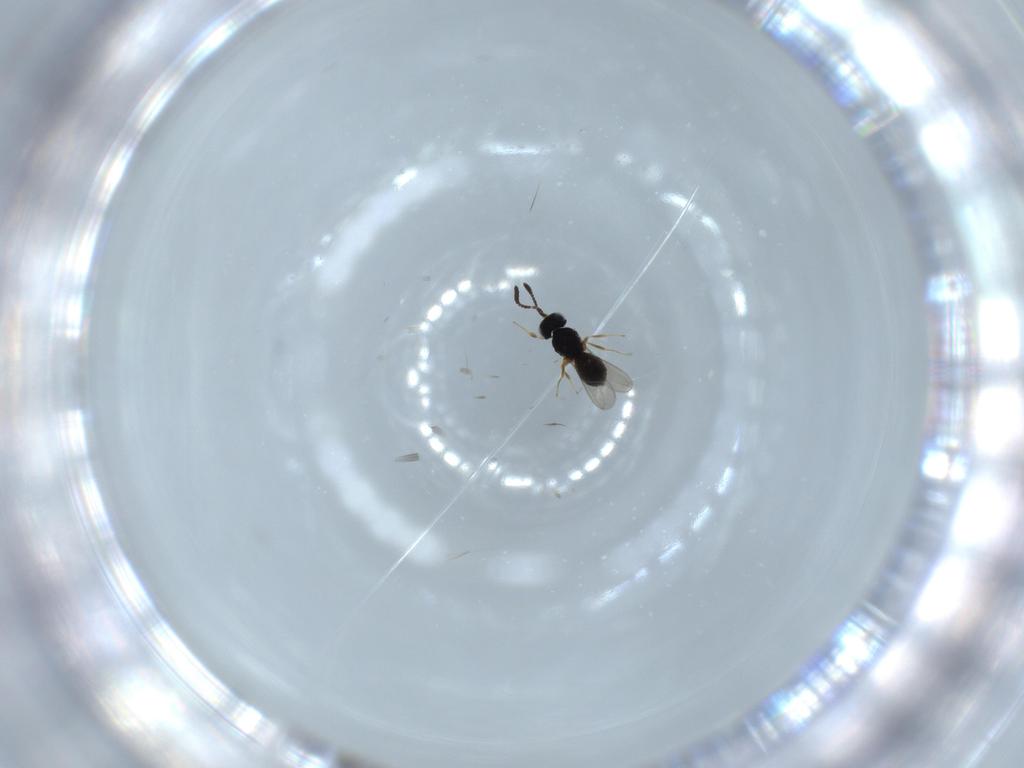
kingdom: Animalia
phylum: Arthropoda
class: Insecta
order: Hymenoptera
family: Scelionidae
